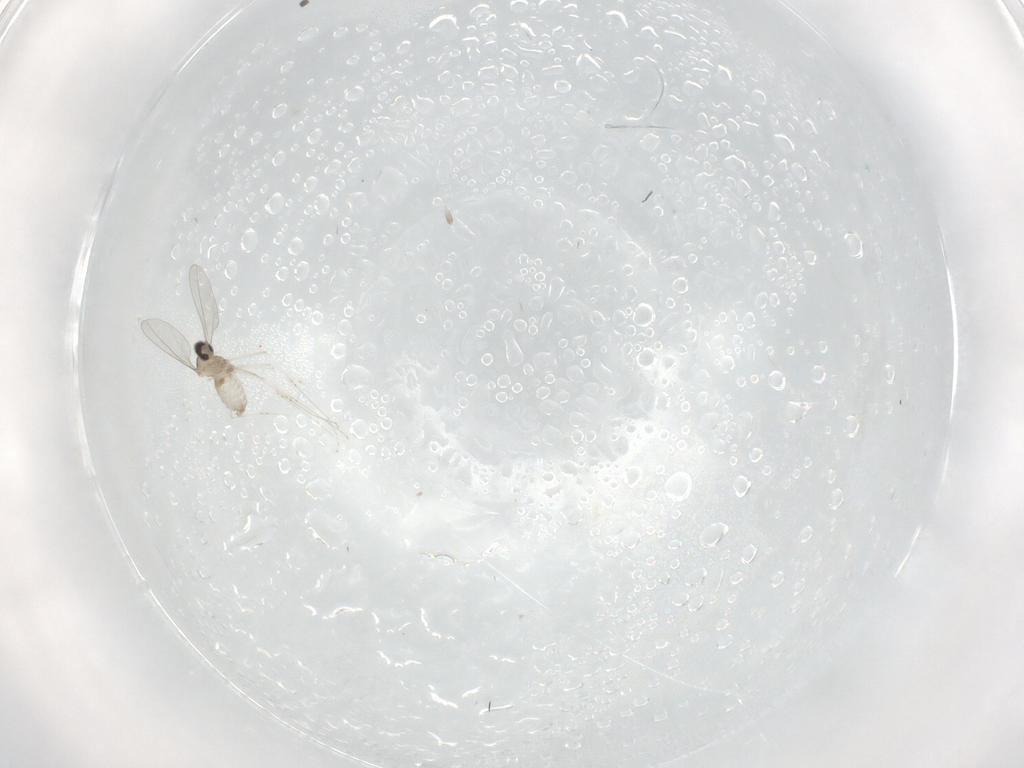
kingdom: Animalia
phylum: Arthropoda
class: Insecta
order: Diptera
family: Cecidomyiidae
